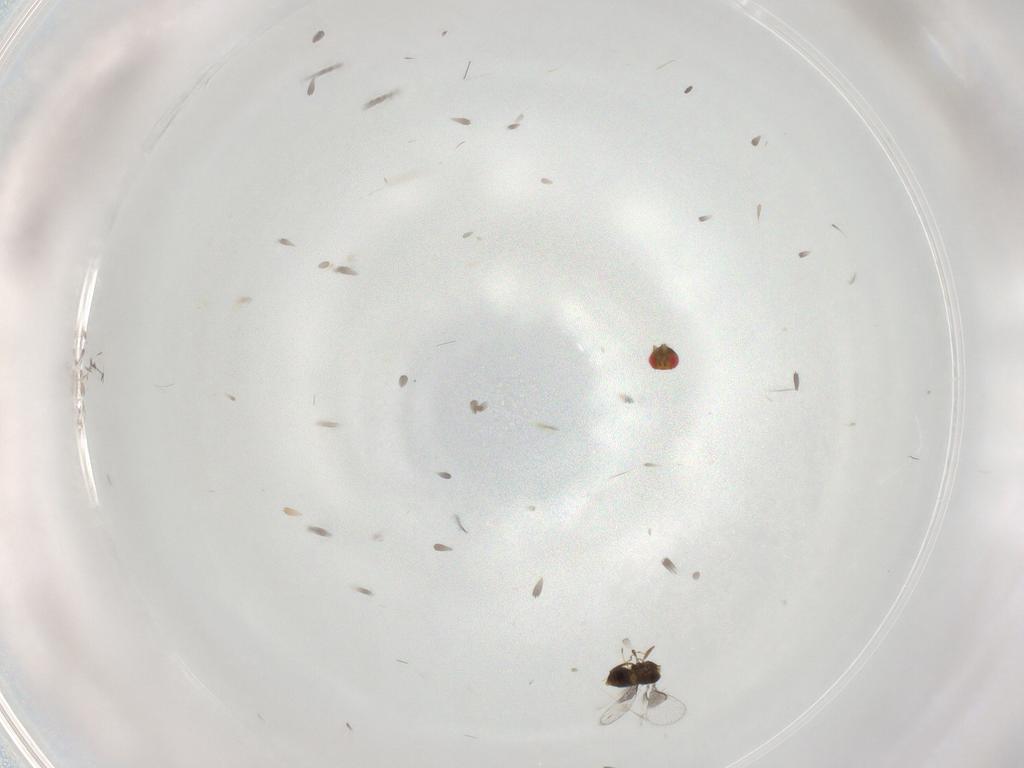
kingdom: Animalia
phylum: Arthropoda
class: Insecta
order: Hymenoptera
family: Trichogrammatidae
